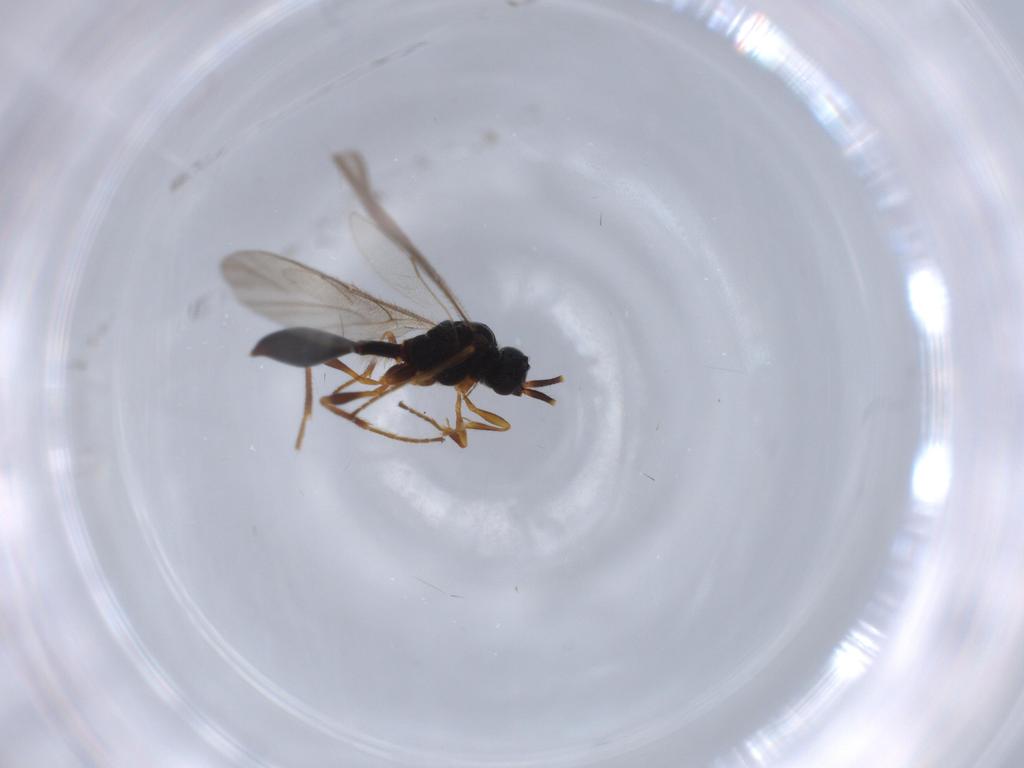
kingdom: Animalia
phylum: Arthropoda
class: Insecta
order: Hymenoptera
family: Ichneumonidae
